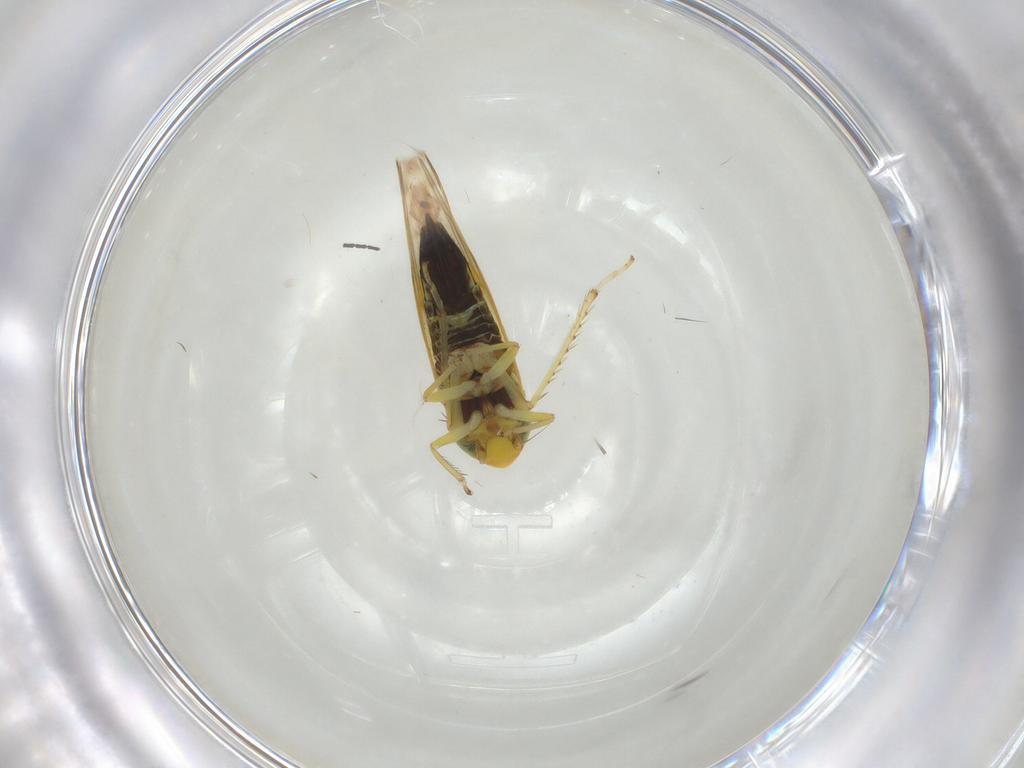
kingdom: Animalia
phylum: Arthropoda
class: Insecta
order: Hemiptera
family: Cicadellidae
